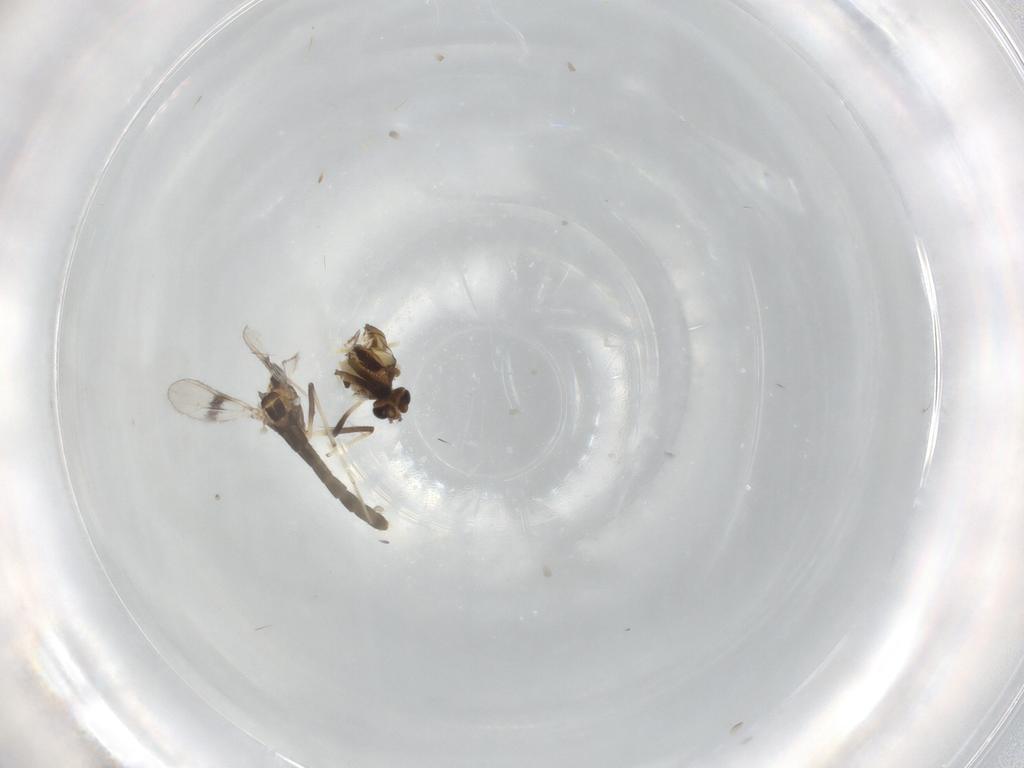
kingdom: Animalia
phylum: Arthropoda
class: Insecta
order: Diptera
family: Chironomidae
